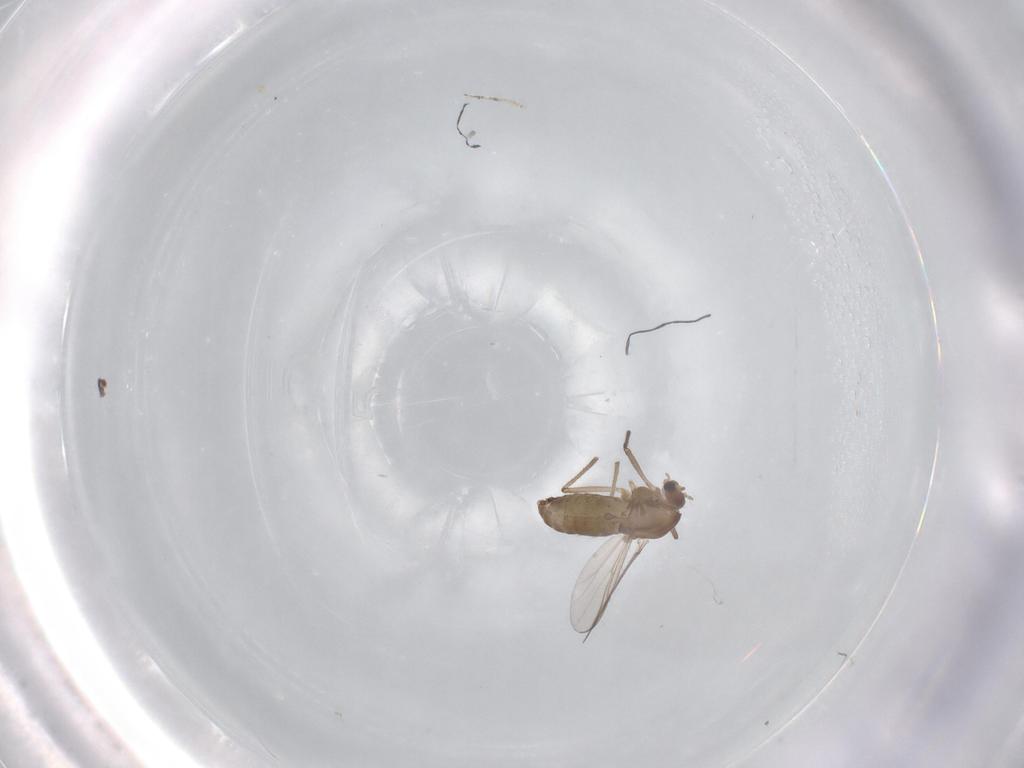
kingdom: Animalia
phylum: Arthropoda
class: Insecta
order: Diptera
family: Chironomidae
